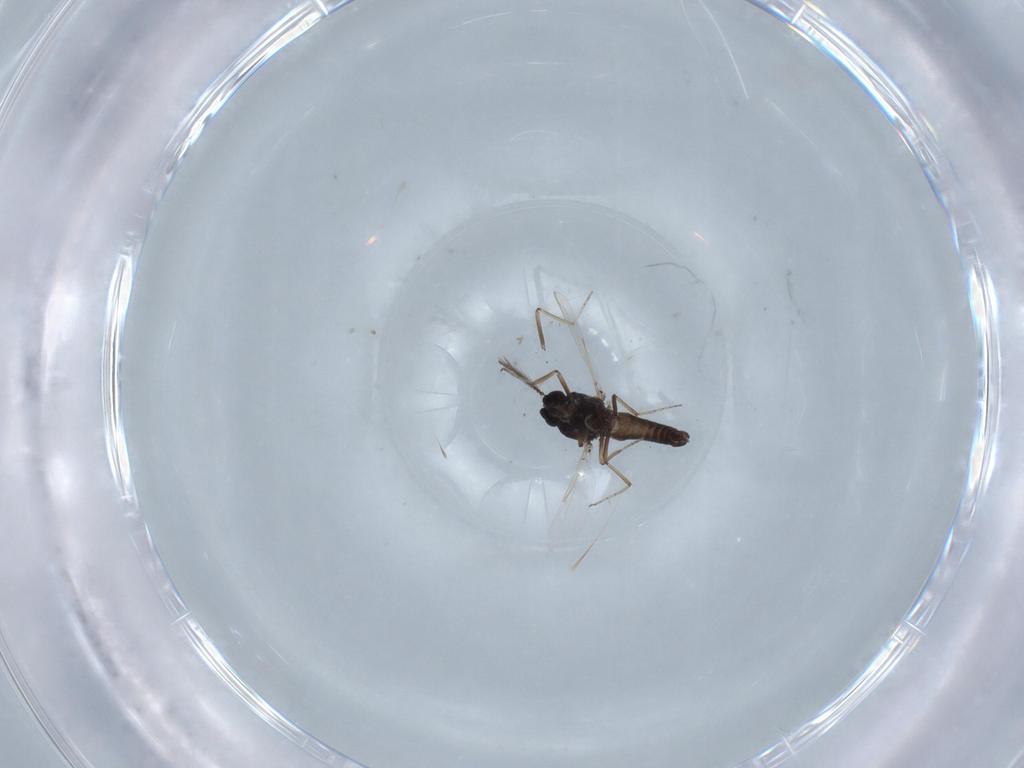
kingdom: Animalia
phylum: Arthropoda
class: Insecta
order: Diptera
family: Ceratopogonidae
